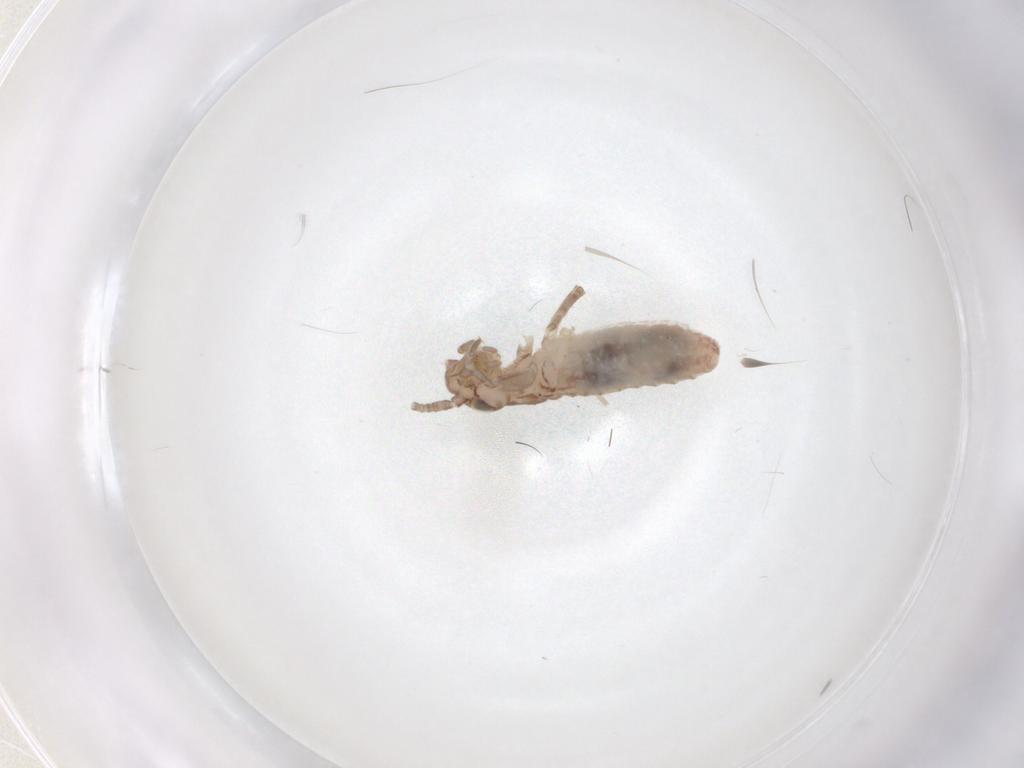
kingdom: Animalia
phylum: Arthropoda
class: Insecta
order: Orthoptera
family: Mogoplistidae
